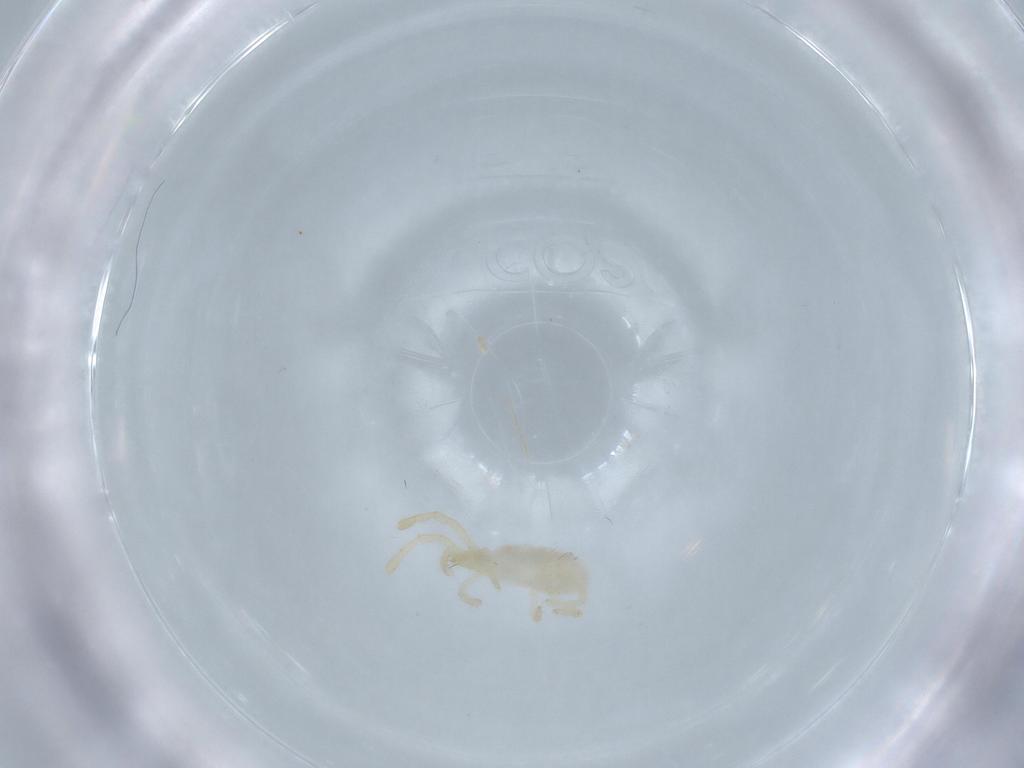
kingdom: Animalia
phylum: Arthropoda
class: Arachnida
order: Trombidiformes
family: Trombidiidae
